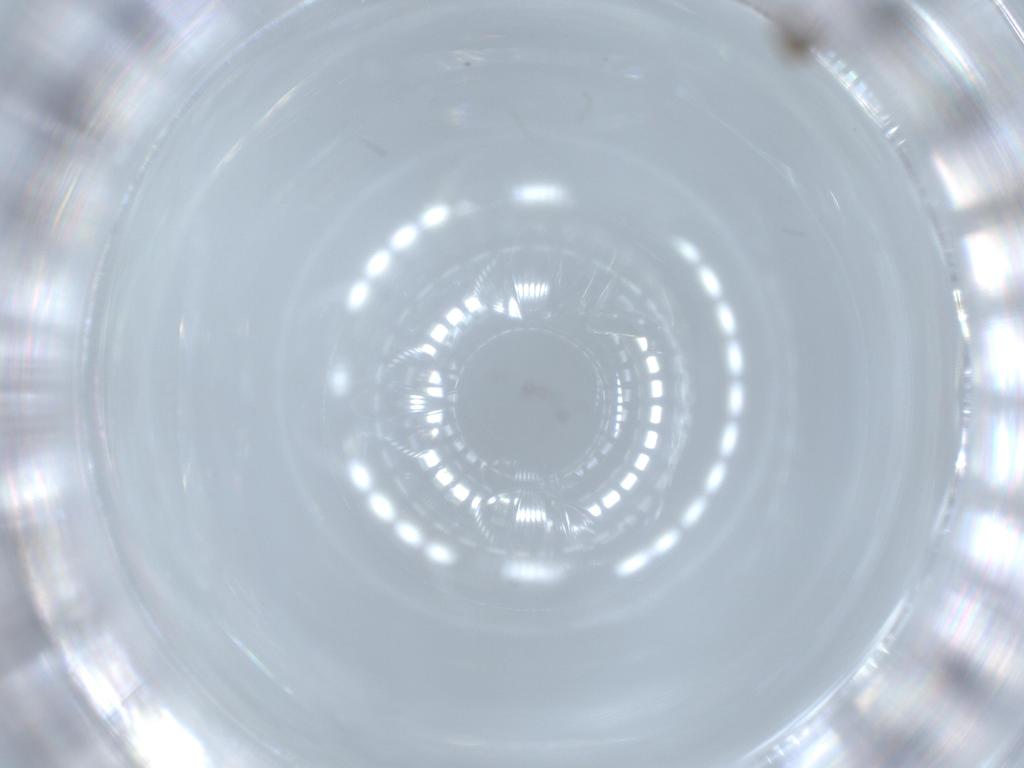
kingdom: Animalia
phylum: Arthropoda
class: Insecta
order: Diptera
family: Cecidomyiidae
